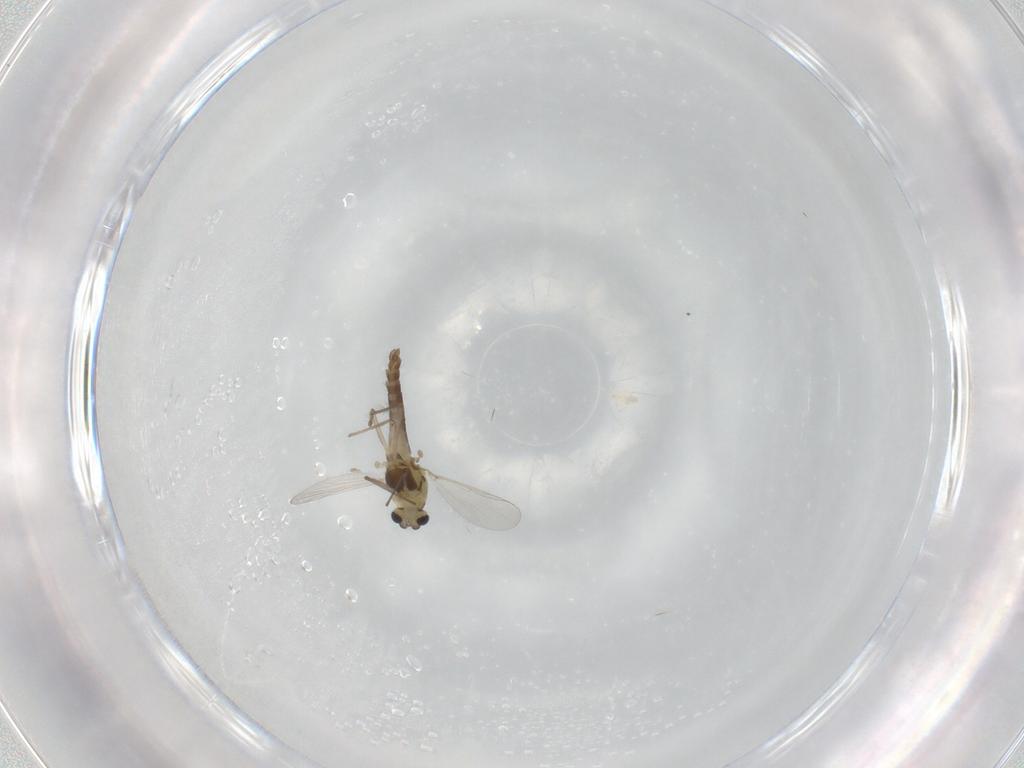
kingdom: Animalia
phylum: Arthropoda
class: Insecta
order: Diptera
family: Chironomidae
